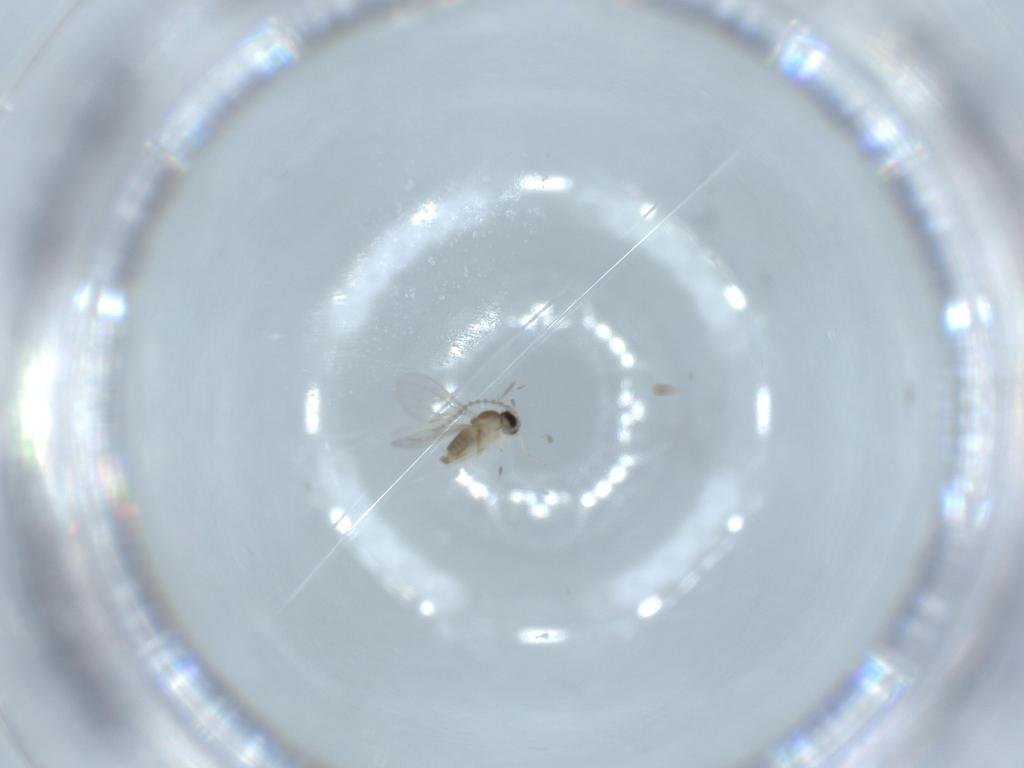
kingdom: Animalia
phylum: Arthropoda
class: Insecta
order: Diptera
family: Cecidomyiidae
